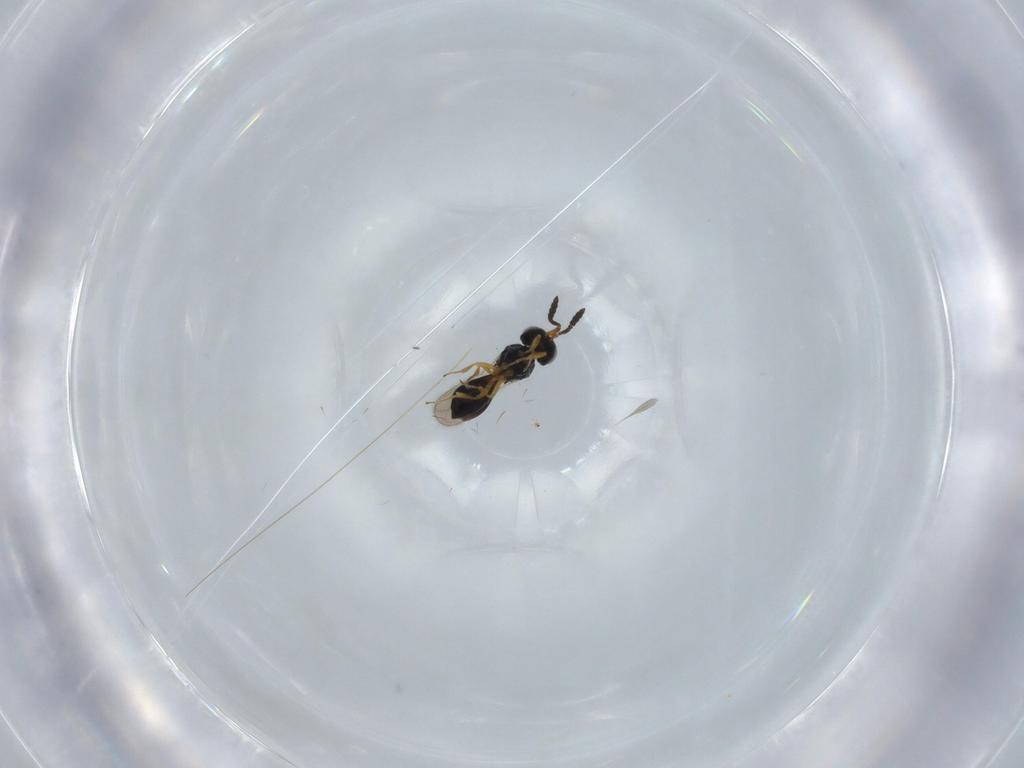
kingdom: Animalia
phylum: Arthropoda
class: Insecta
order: Hymenoptera
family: Scelionidae
